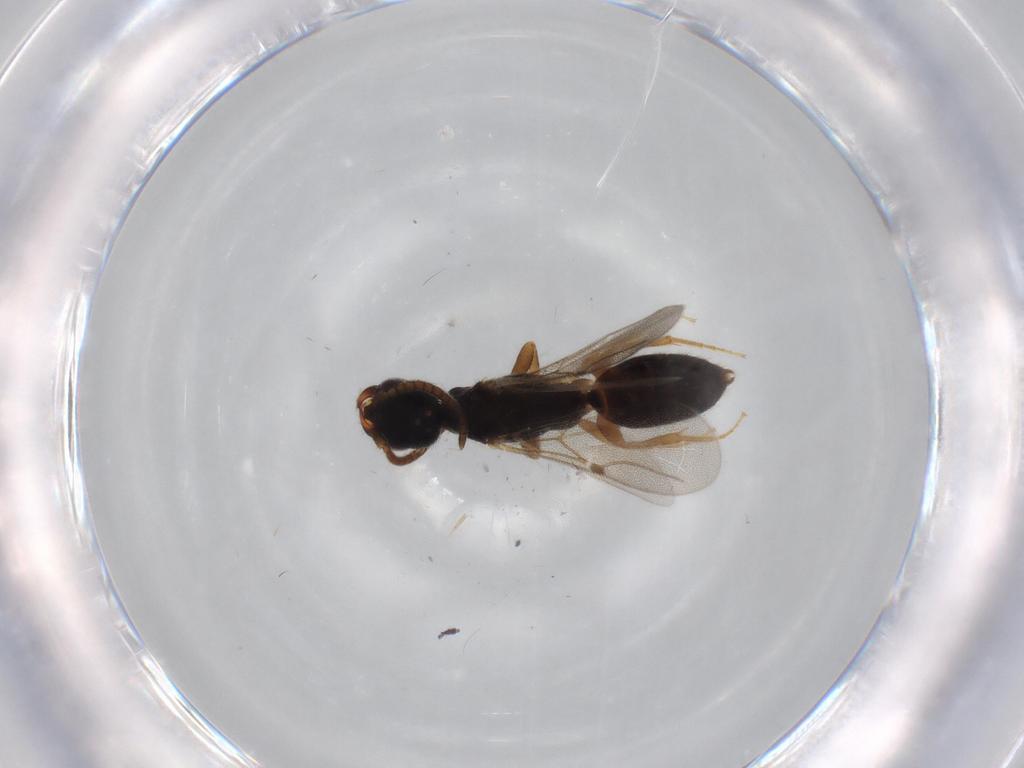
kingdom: Animalia
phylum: Arthropoda
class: Insecta
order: Hymenoptera
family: Bethylidae
